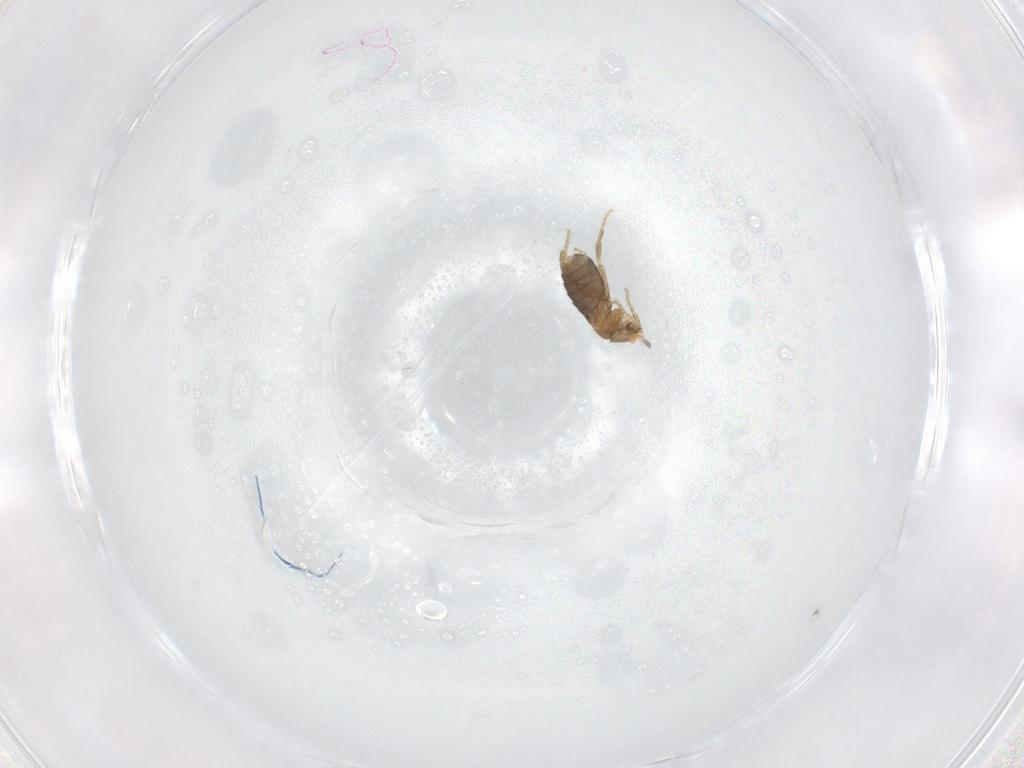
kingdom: Animalia
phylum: Arthropoda
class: Insecta
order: Diptera
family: Phoridae
